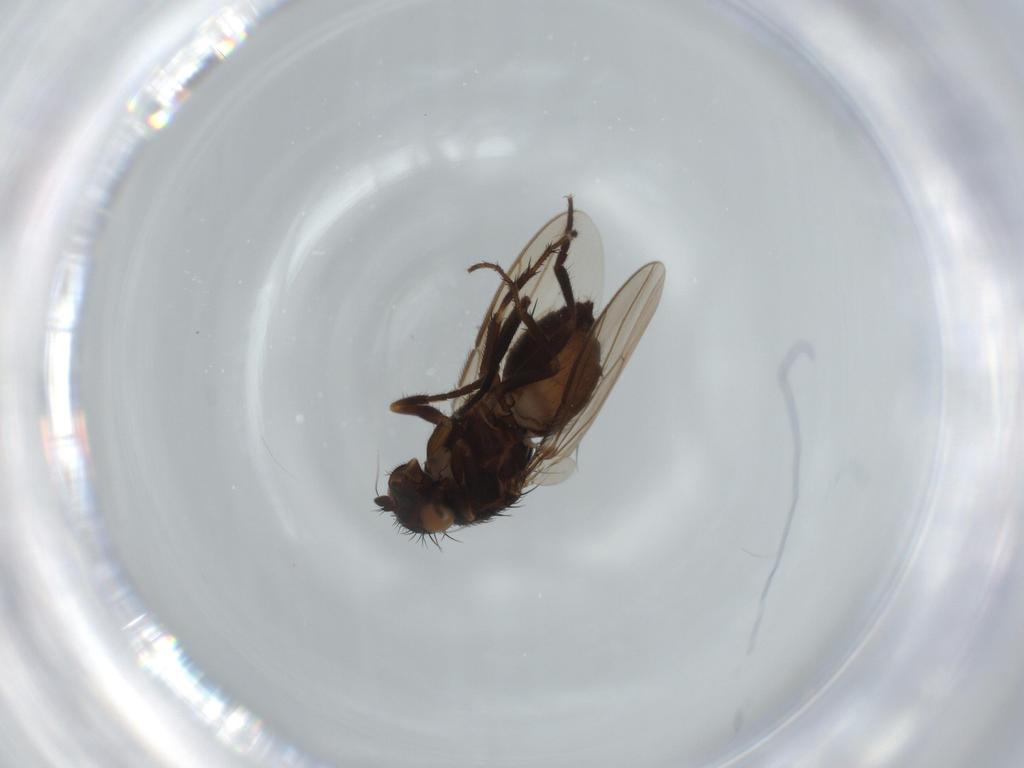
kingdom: Animalia
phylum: Arthropoda
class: Insecta
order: Diptera
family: Sphaeroceridae
